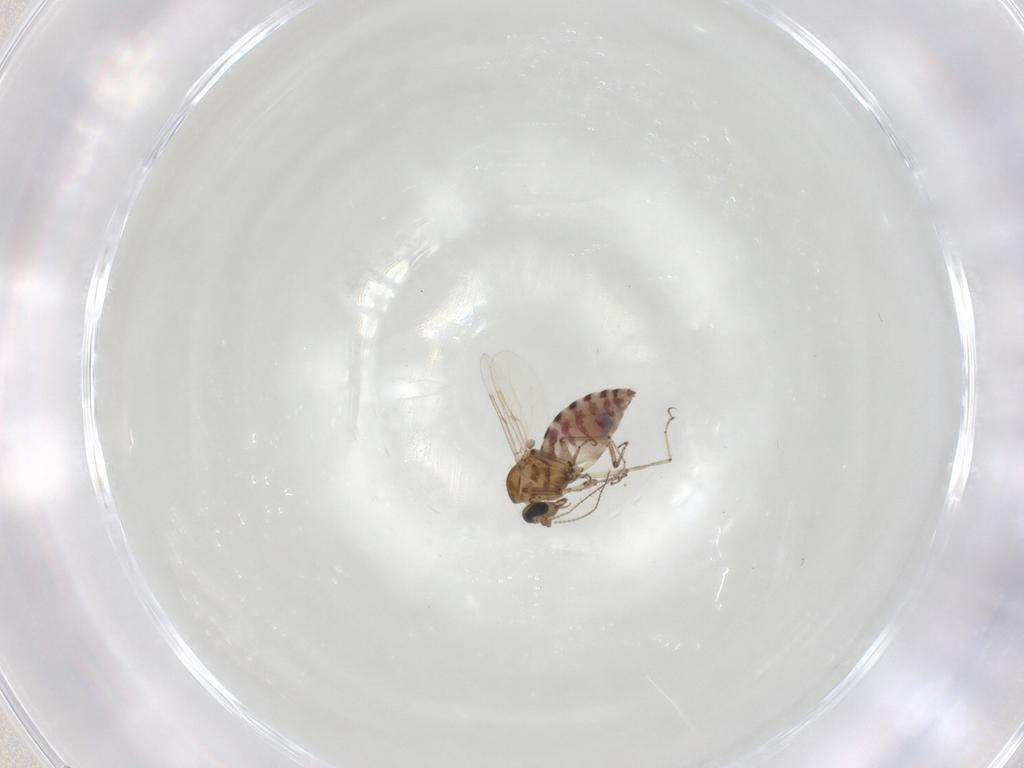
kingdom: Animalia
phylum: Arthropoda
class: Insecta
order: Diptera
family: Ceratopogonidae
